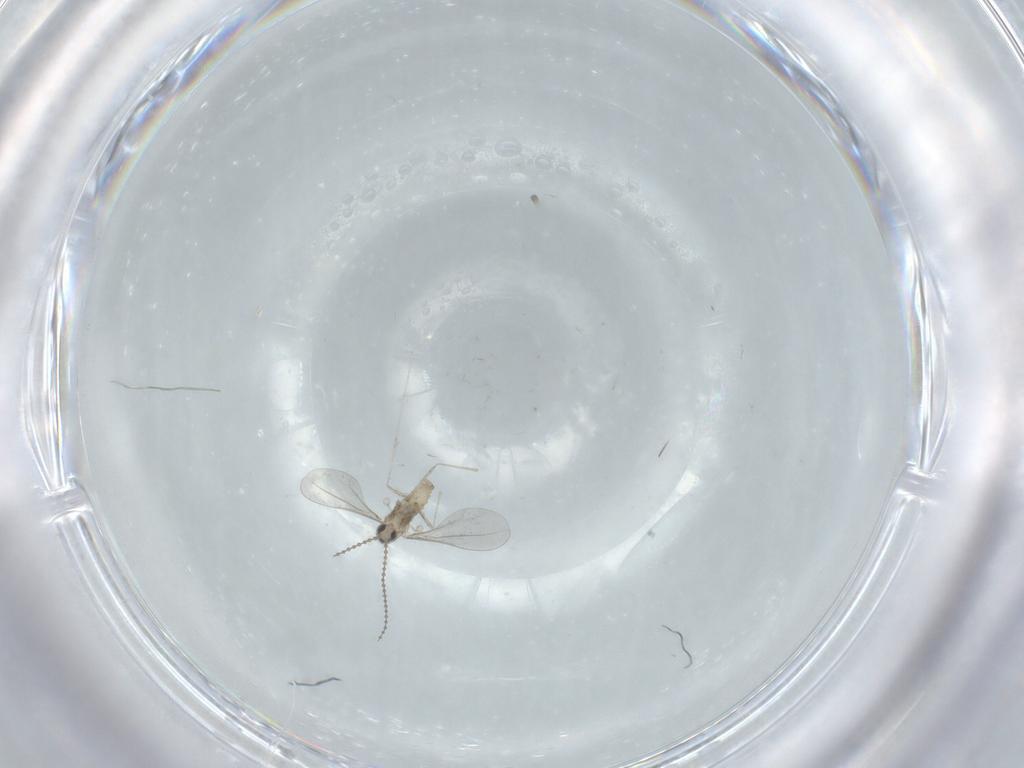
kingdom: Animalia
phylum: Arthropoda
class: Insecta
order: Diptera
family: Cecidomyiidae
